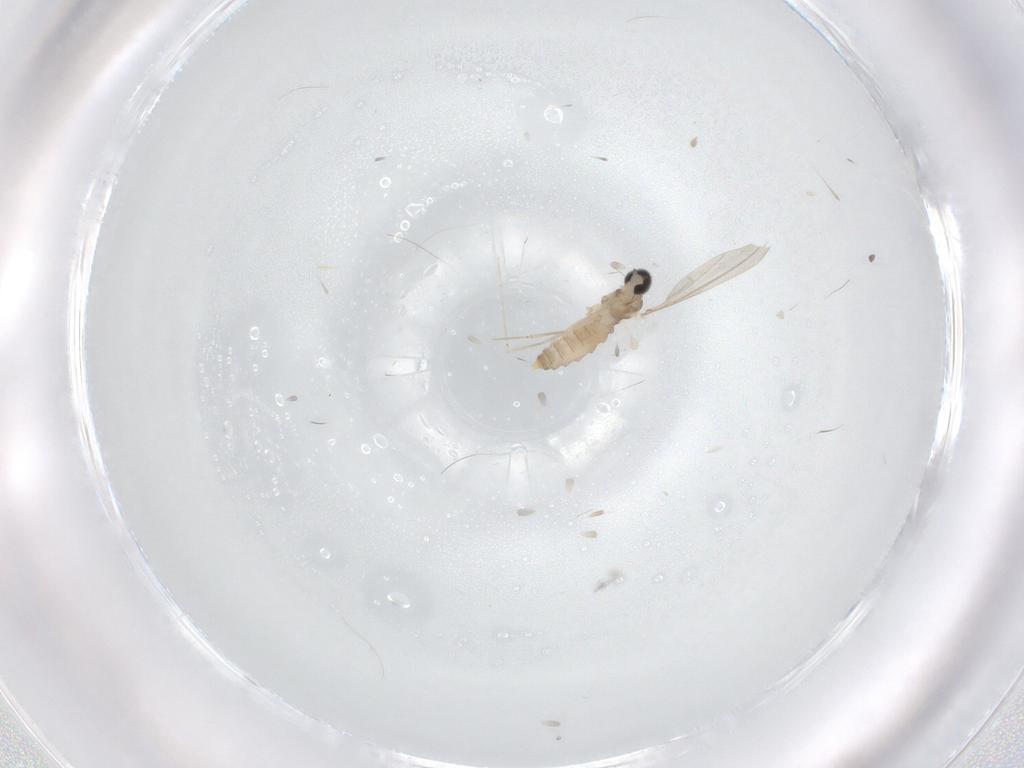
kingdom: Animalia
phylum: Arthropoda
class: Insecta
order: Diptera
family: Cecidomyiidae
